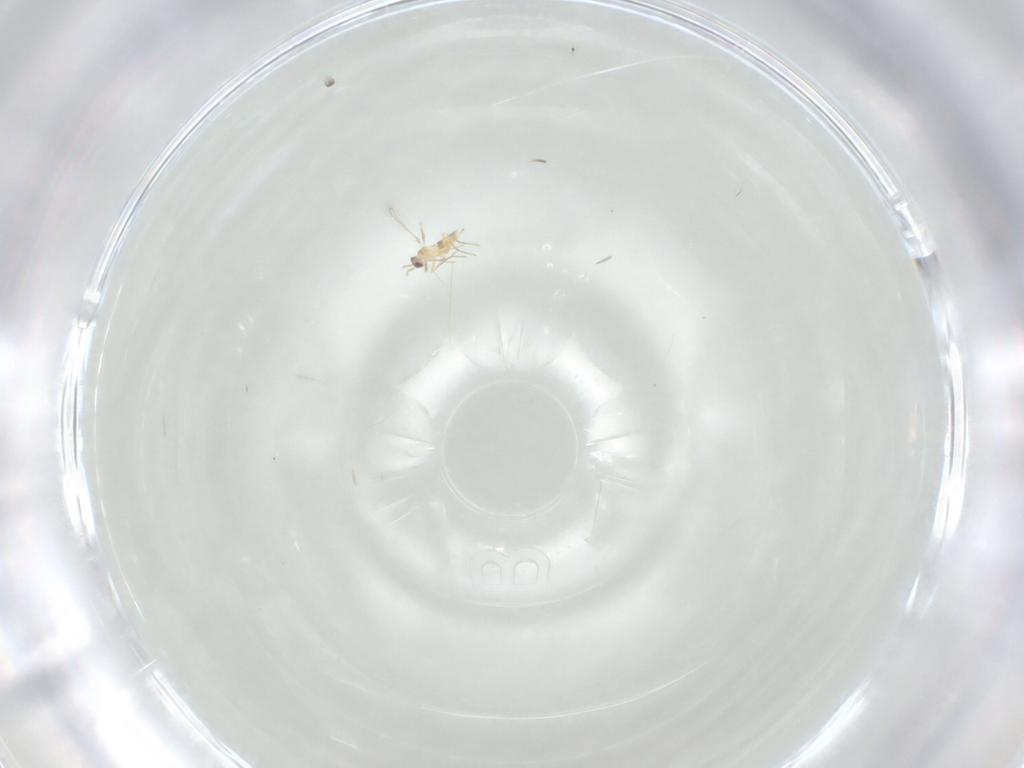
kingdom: Animalia
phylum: Arthropoda
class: Insecta
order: Hymenoptera
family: Mymaridae
